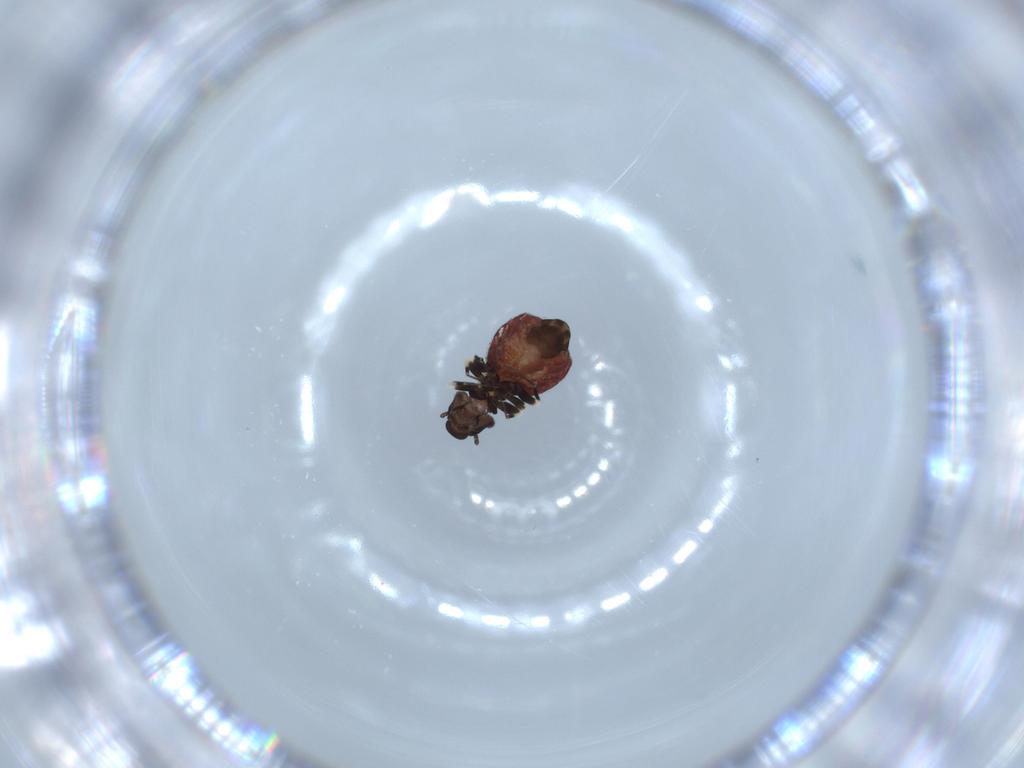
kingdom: Animalia
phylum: Arthropoda
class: Insecta
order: Psocodea
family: Lepidopsocidae
